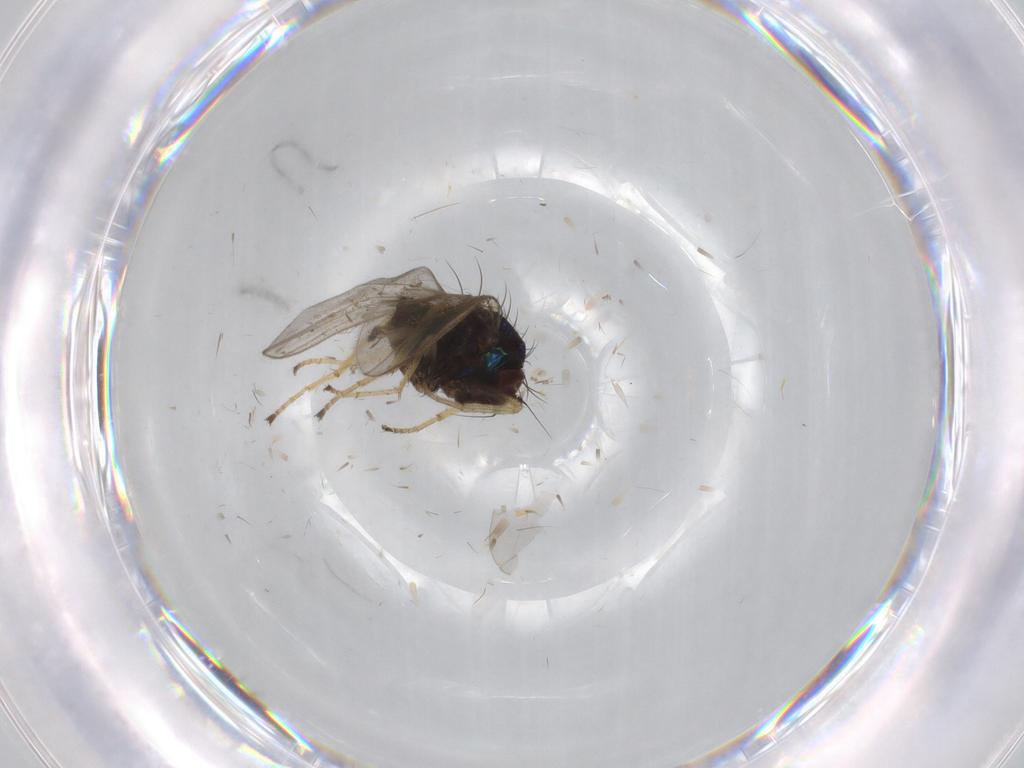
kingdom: Animalia
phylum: Arthropoda
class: Insecta
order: Diptera
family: Dolichopodidae
